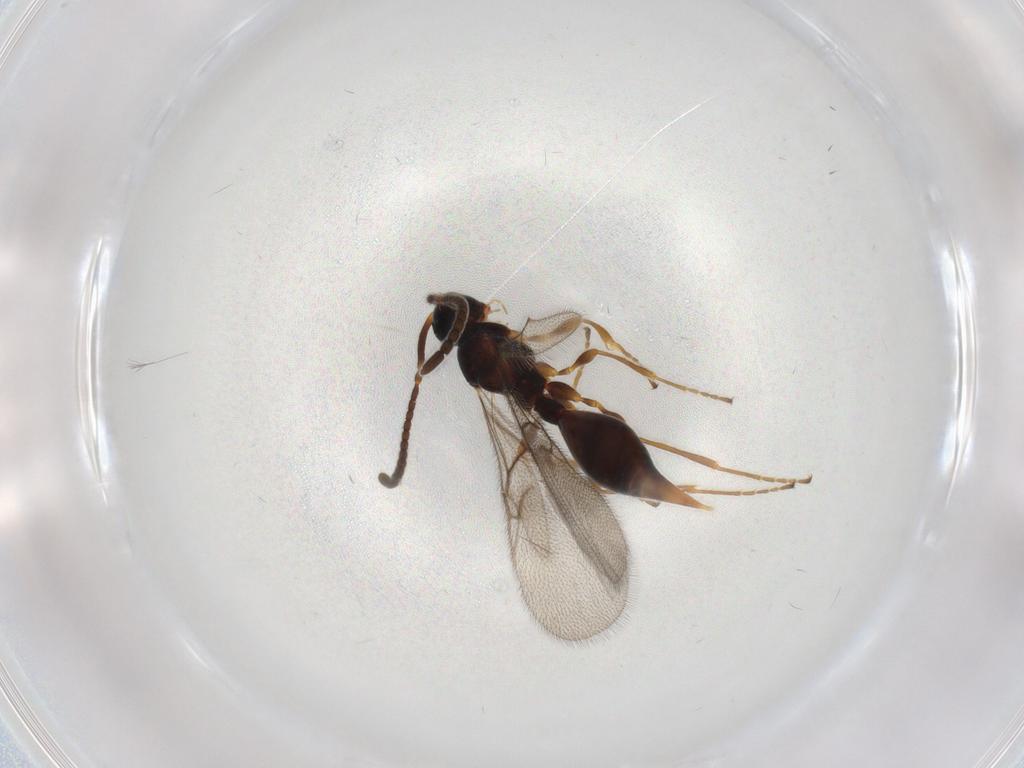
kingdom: Animalia
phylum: Arthropoda
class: Insecta
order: Hymenoptera
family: Diapriidae
